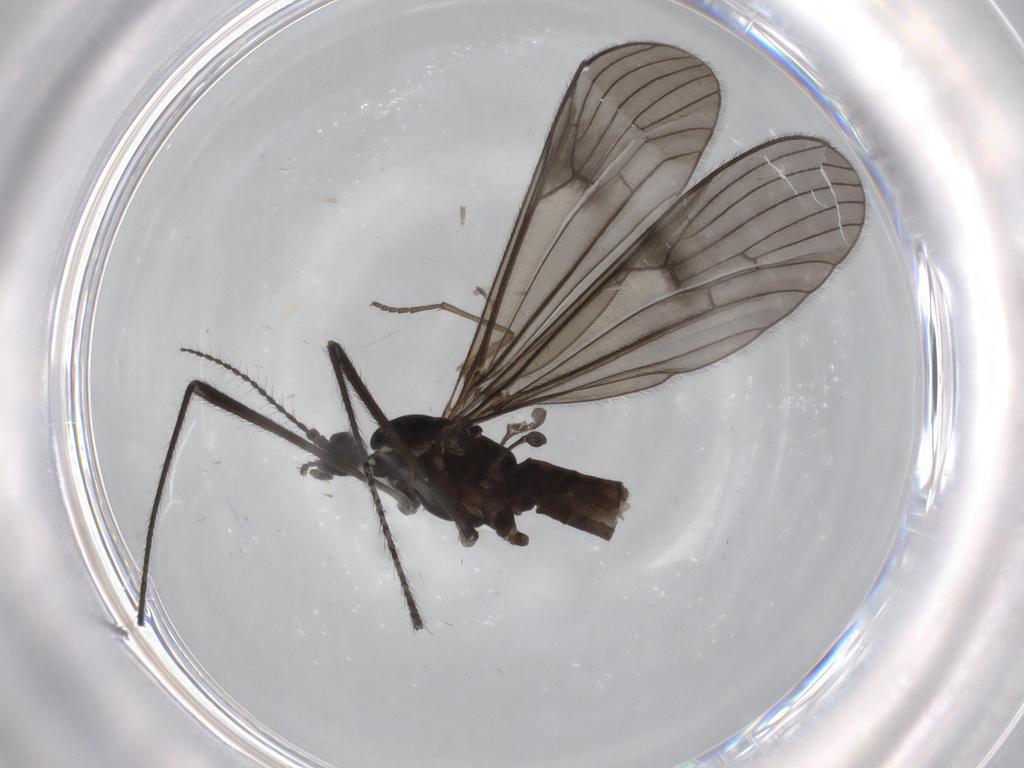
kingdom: Animalia
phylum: Arthropoda
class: Insecta
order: Diptera
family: Limoniidae
